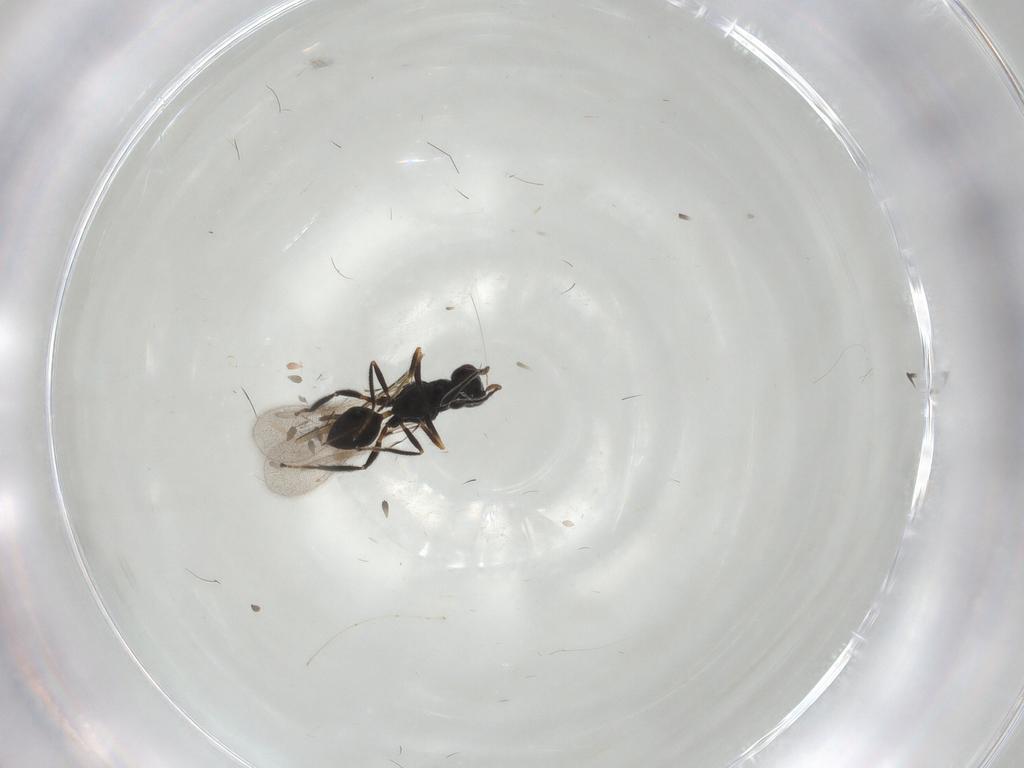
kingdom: Animalia
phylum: Arthropoda
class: Insecta
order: Hymenoptera
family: Mymaridae
